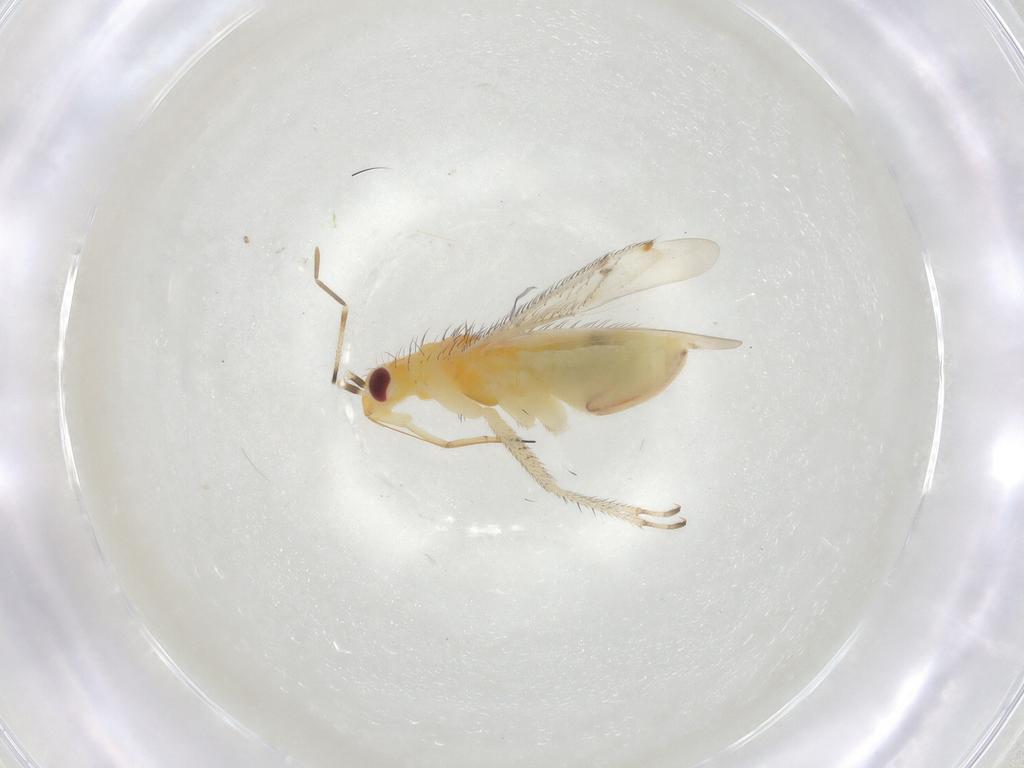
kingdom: Animalia
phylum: Arthropoda
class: Insecta
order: Hemiptera
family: Miridae
